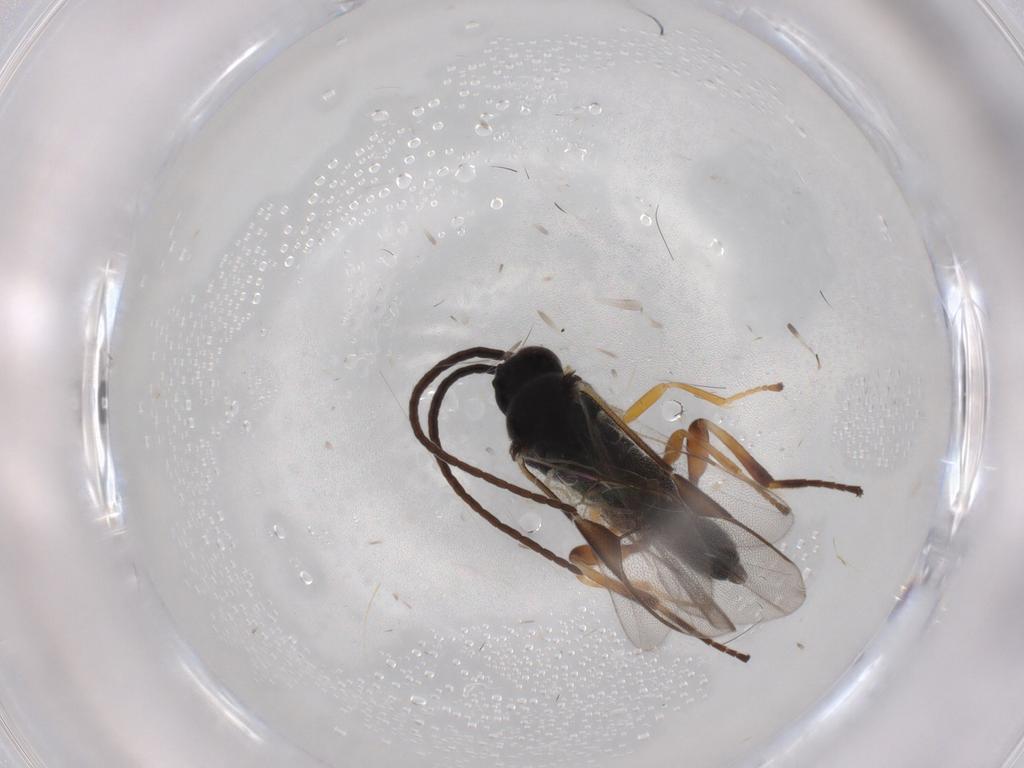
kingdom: Animalia
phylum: Arthropoda
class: Insecta
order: Hymenoptera
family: Braconidae
